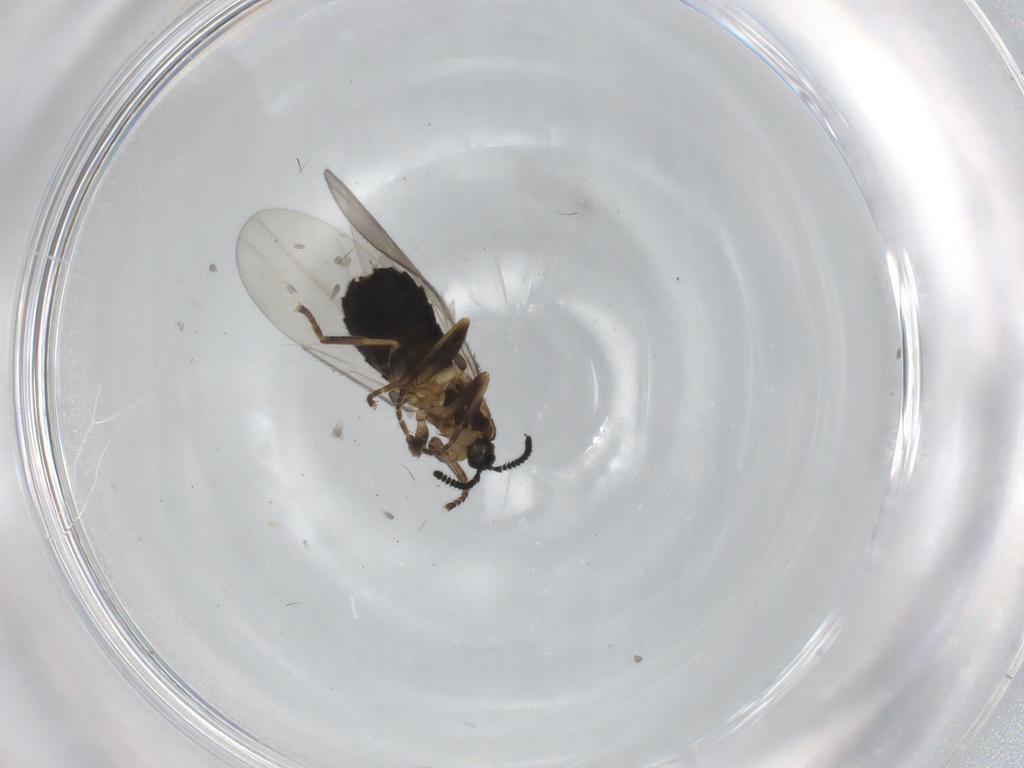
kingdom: Animalia
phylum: Arthropoda
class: Insecta
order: Diptera
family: Scatopsidae
